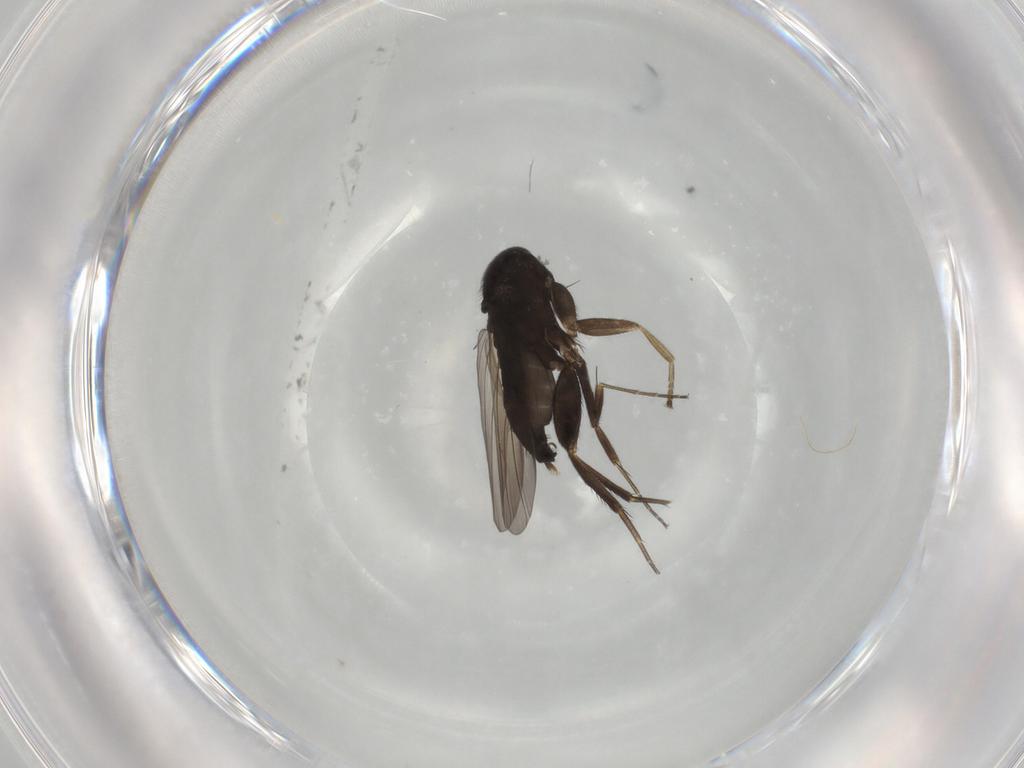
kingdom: Animalia
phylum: Arthropoda
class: Insecta
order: Diptera
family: Phoridae
